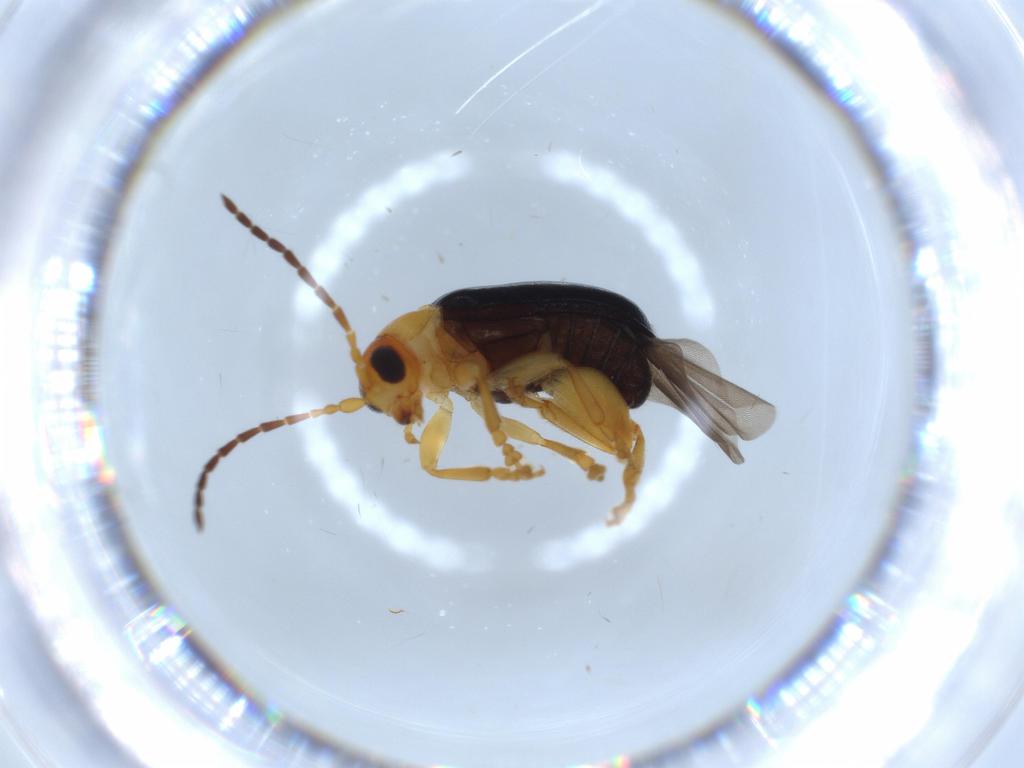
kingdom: Animalia
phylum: Arthropoda
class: Insecta
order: Coleoptera
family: Chrysomelidae
